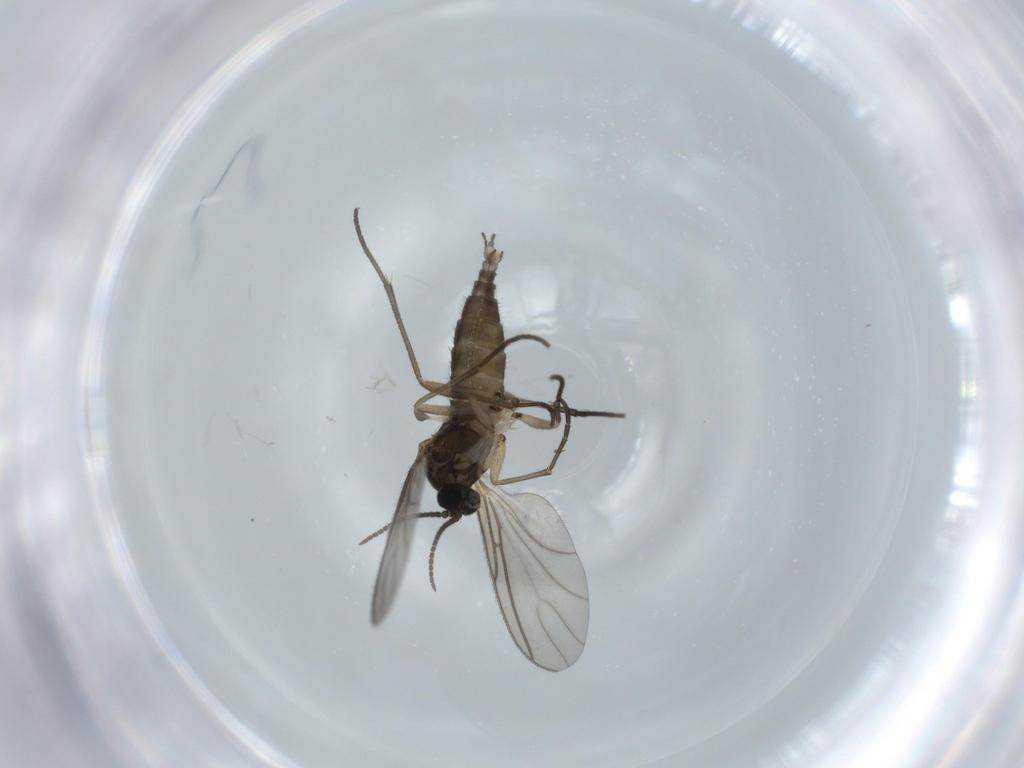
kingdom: Animalia
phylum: Arthropoda
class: Insecta
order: Diptera
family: Sciaridae
